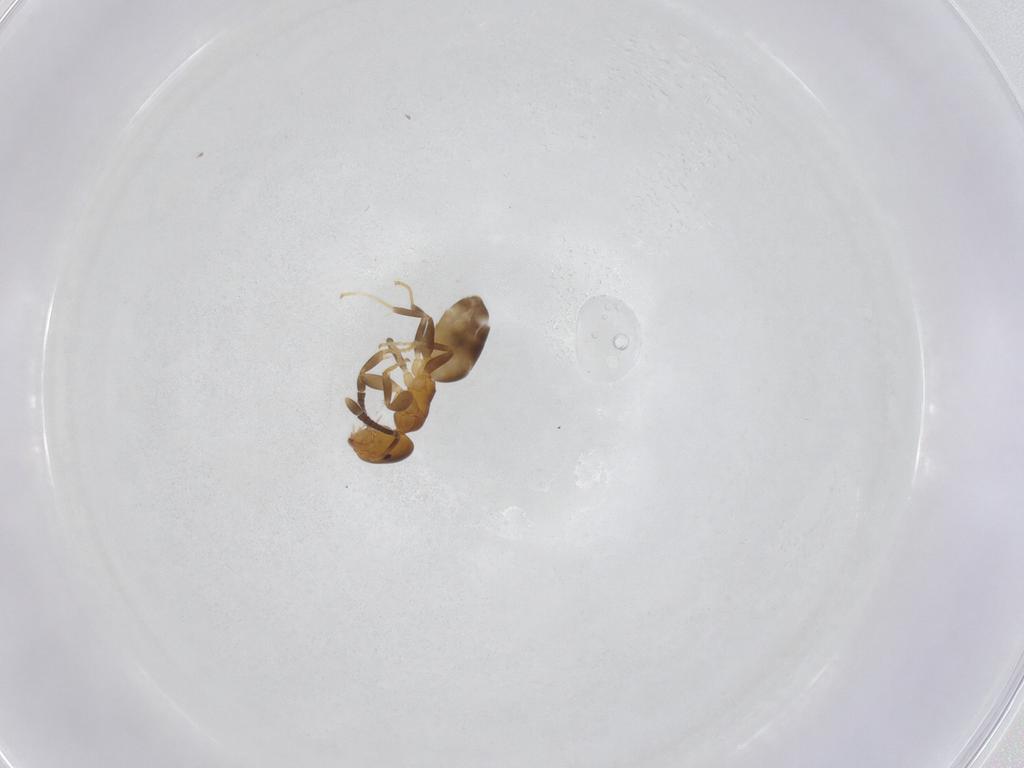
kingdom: Animalia
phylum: Arthropoda
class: Insecta
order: Hymenoptera
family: Formicidae
